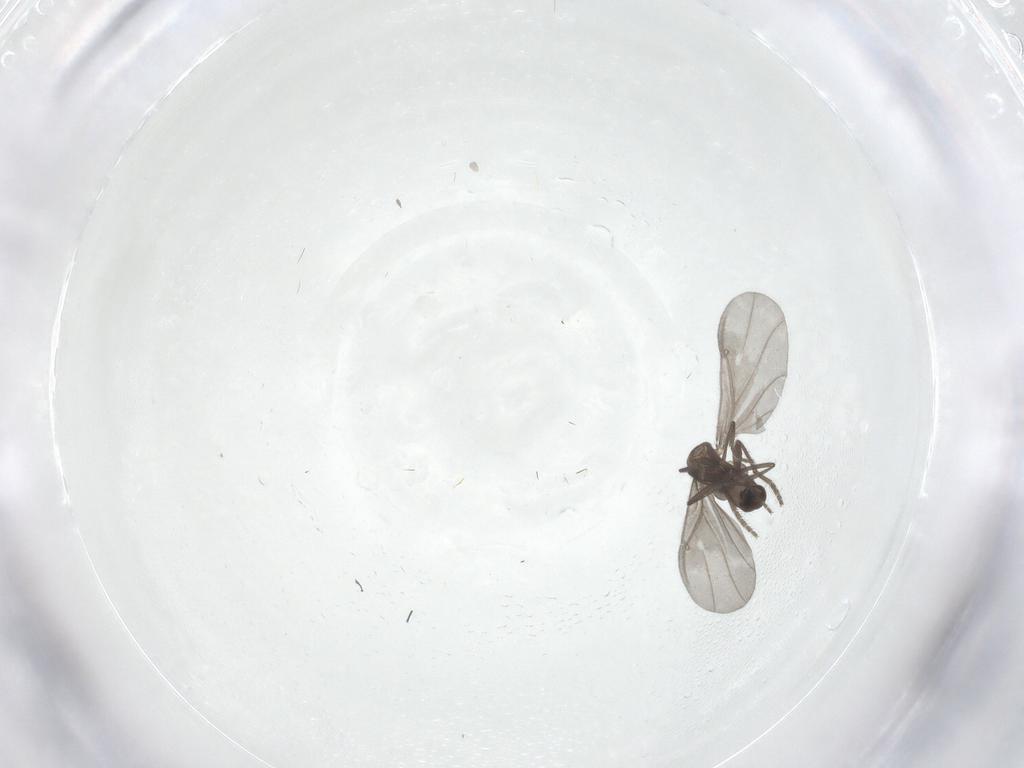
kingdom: Animalia
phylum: Arthropoda
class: Insecta
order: Diptera
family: Phoridae
